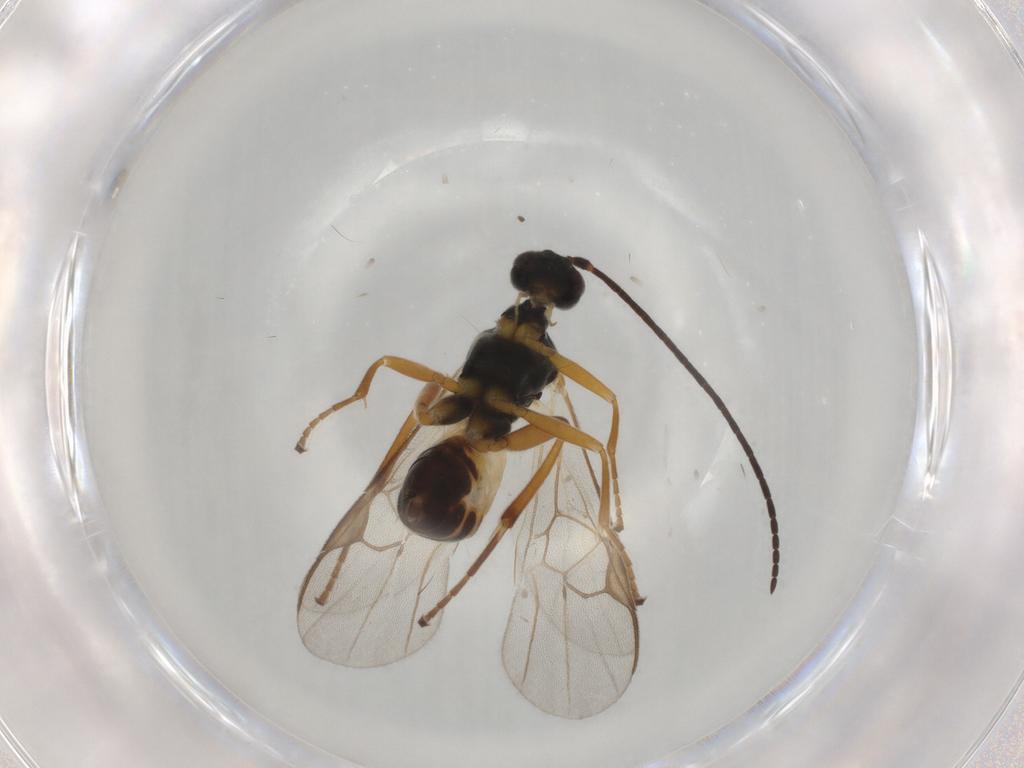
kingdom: Animalia
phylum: Arthropoda
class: Insecta
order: Hymenoptera
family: Braconidae
